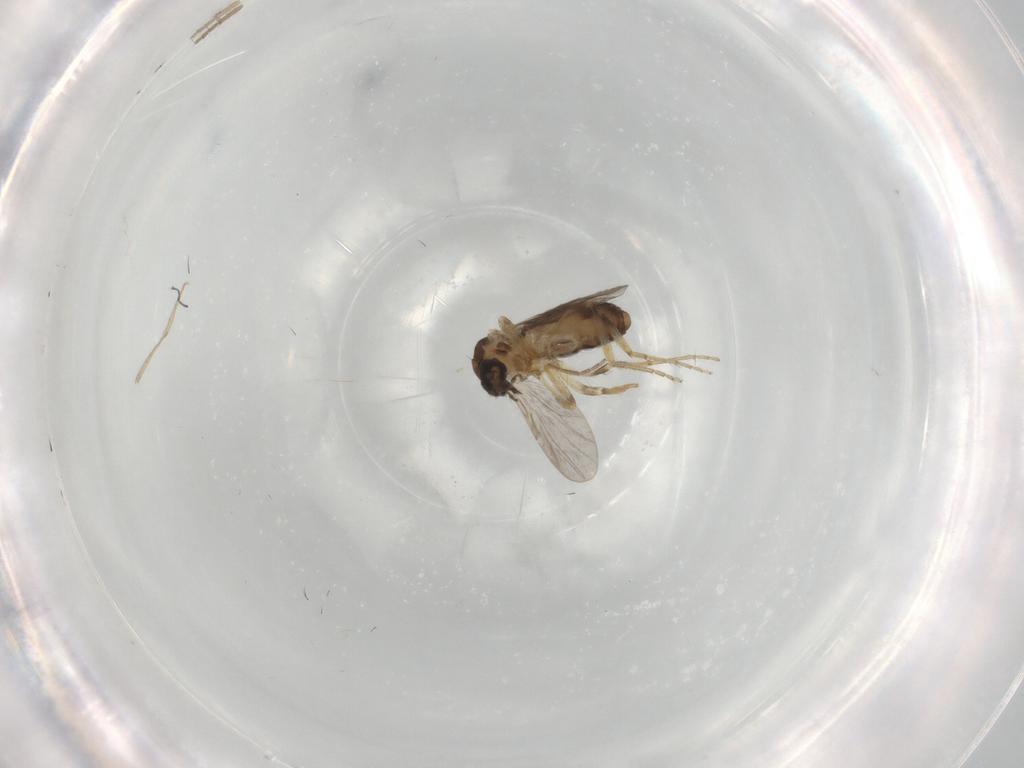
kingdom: Animalia
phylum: Arthropoda
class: Insecta
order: Diptera
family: Ceratopogonidae
